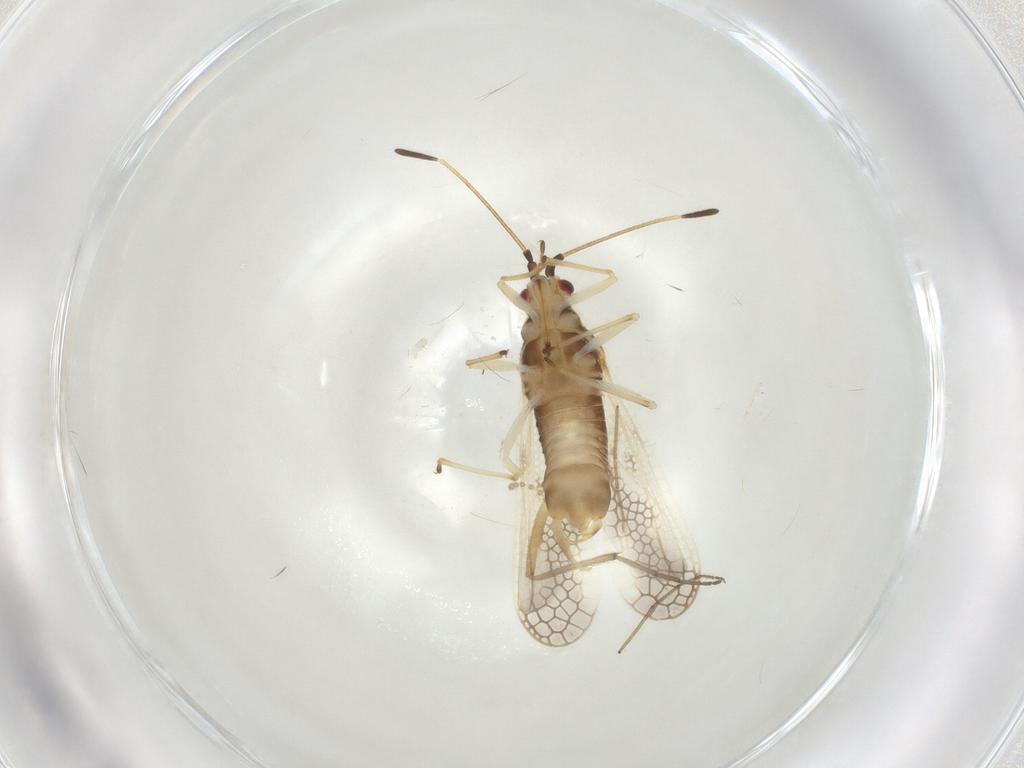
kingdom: Animalia
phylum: Arthropoda
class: Insecta
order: Hemiptera
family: Tingidae
